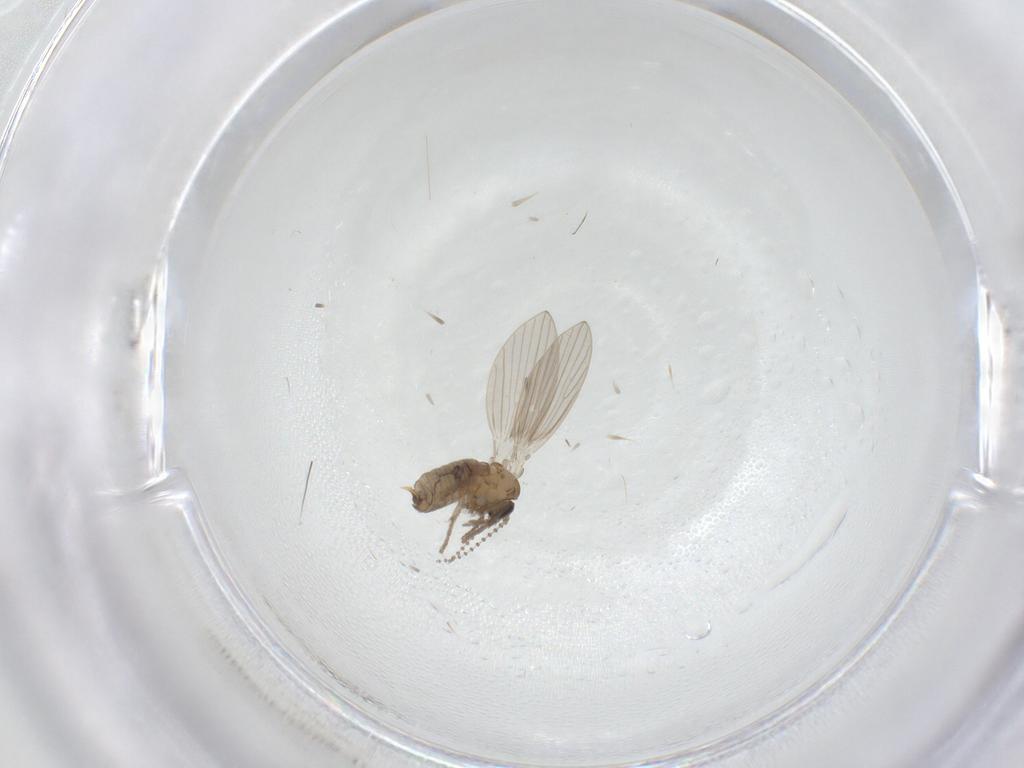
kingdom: Animalia
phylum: Arthropoda
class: Insecta
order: Diptera
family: Psychodidae
